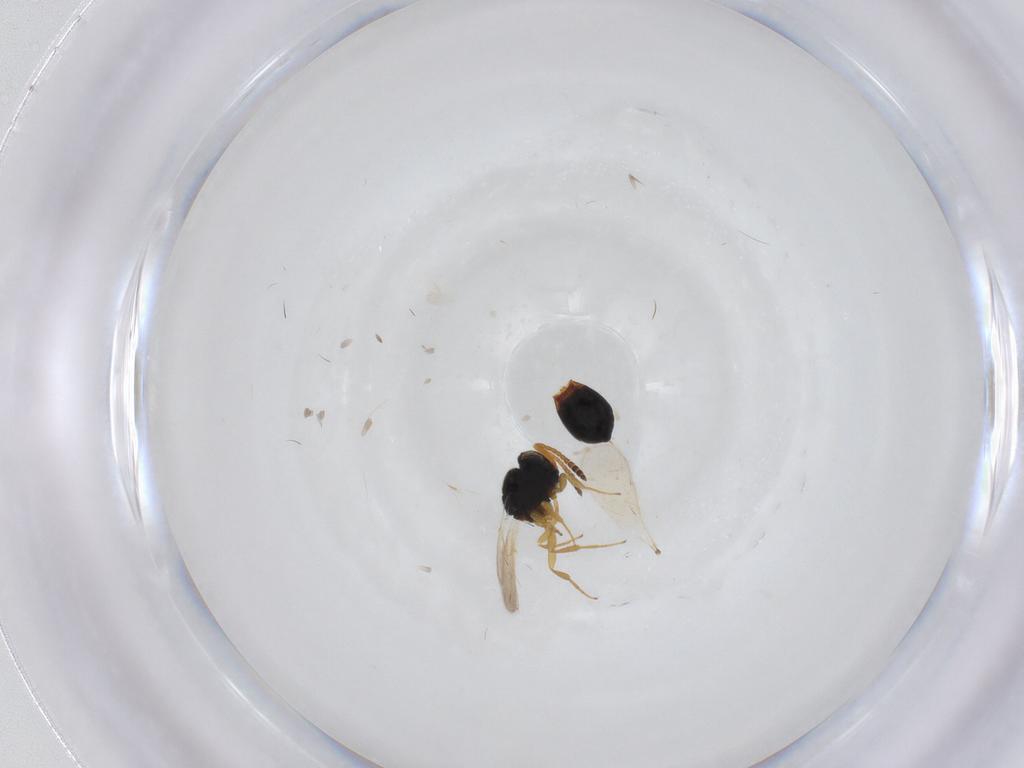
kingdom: Animalia
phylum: Arthropoda
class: Insecta
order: Hymenoptera
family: Scelionidae
